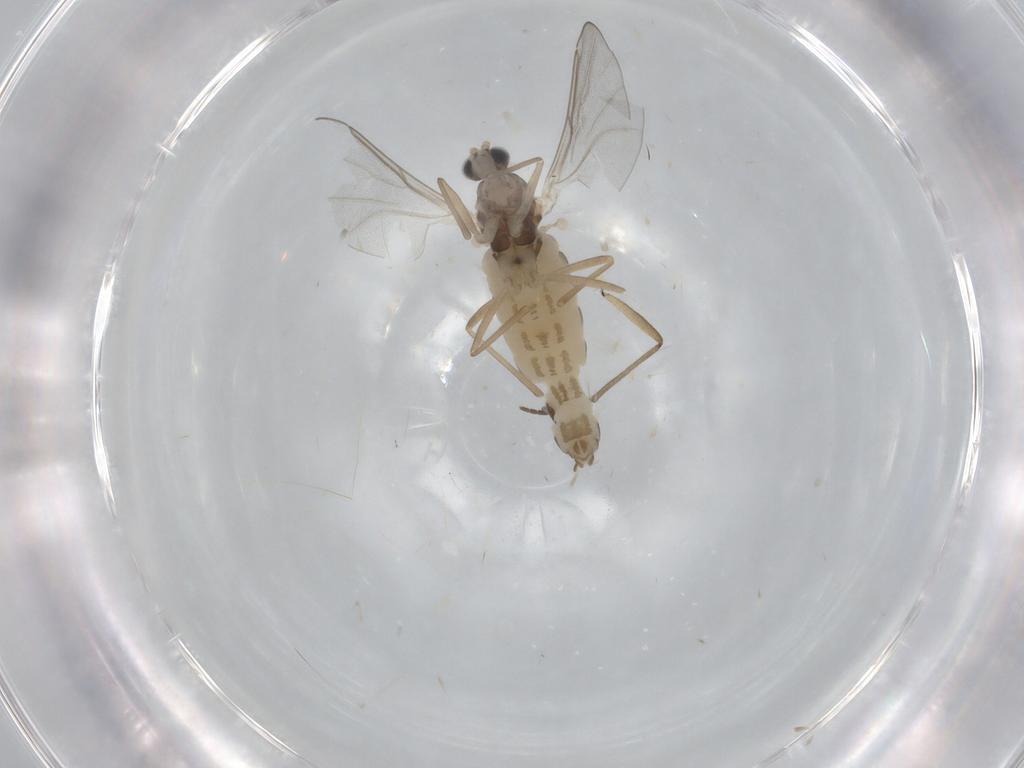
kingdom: Animalia
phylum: Arthropoda
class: Insecta
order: Diptera
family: Cecidomyiidae
